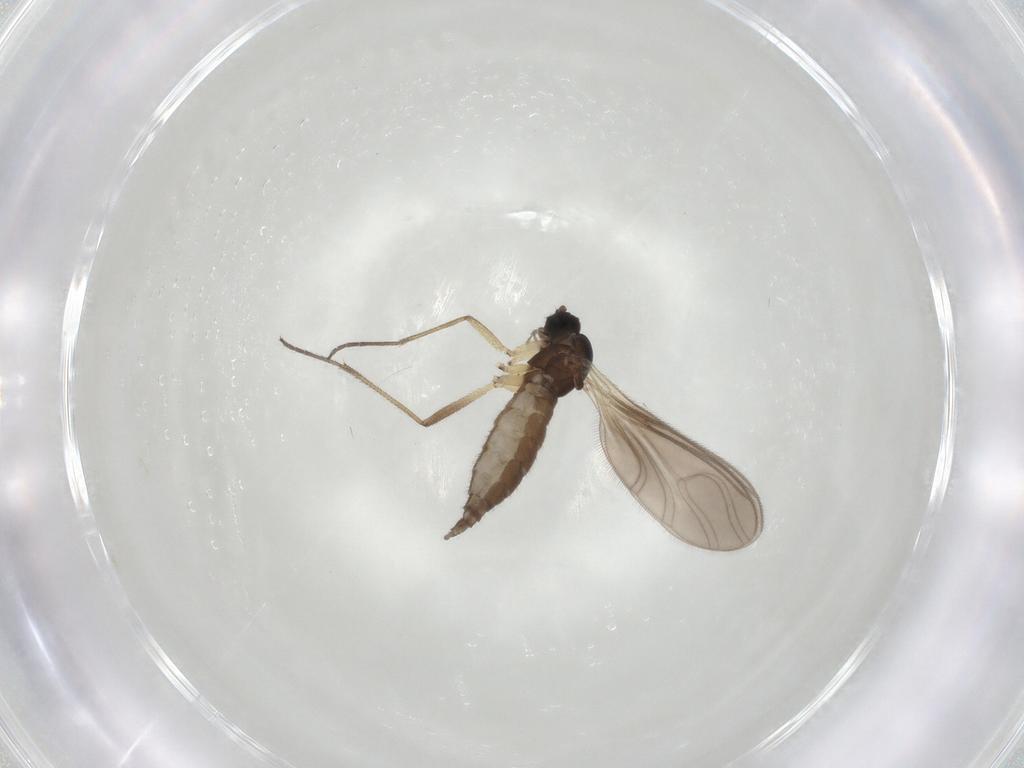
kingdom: Animalia
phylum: Arthropoda
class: Insecta
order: Diptera
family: Sciaridae
